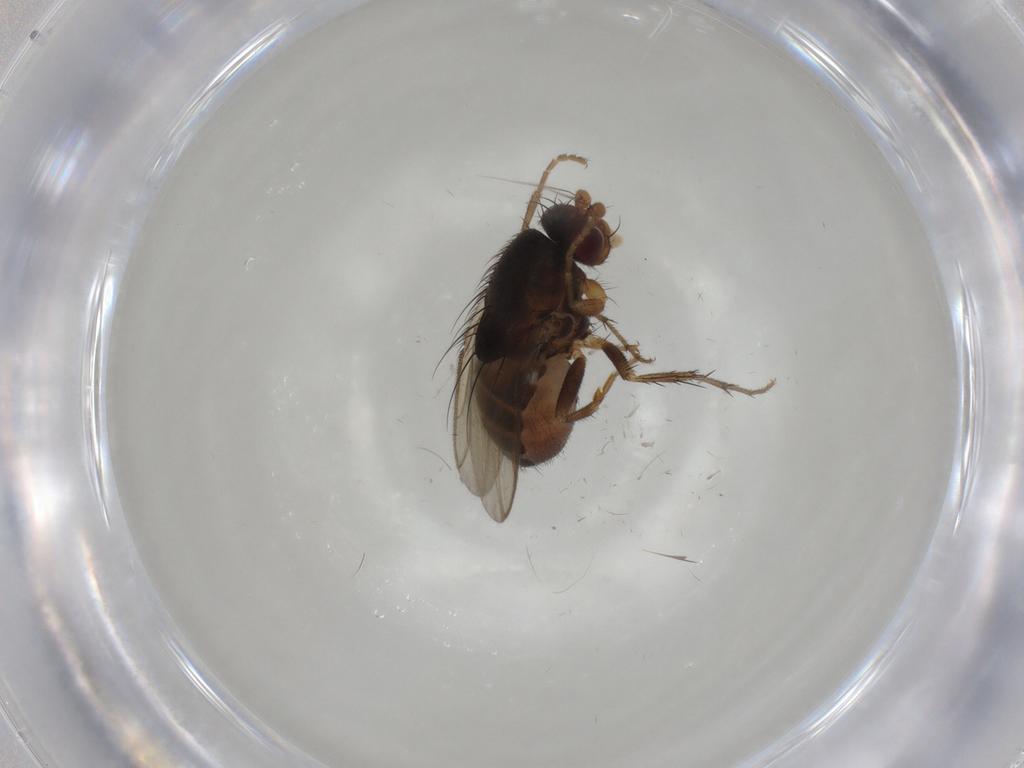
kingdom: Animalia
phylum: Arthropoda
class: Insecta
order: Diptera
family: Sphaeroceridae
